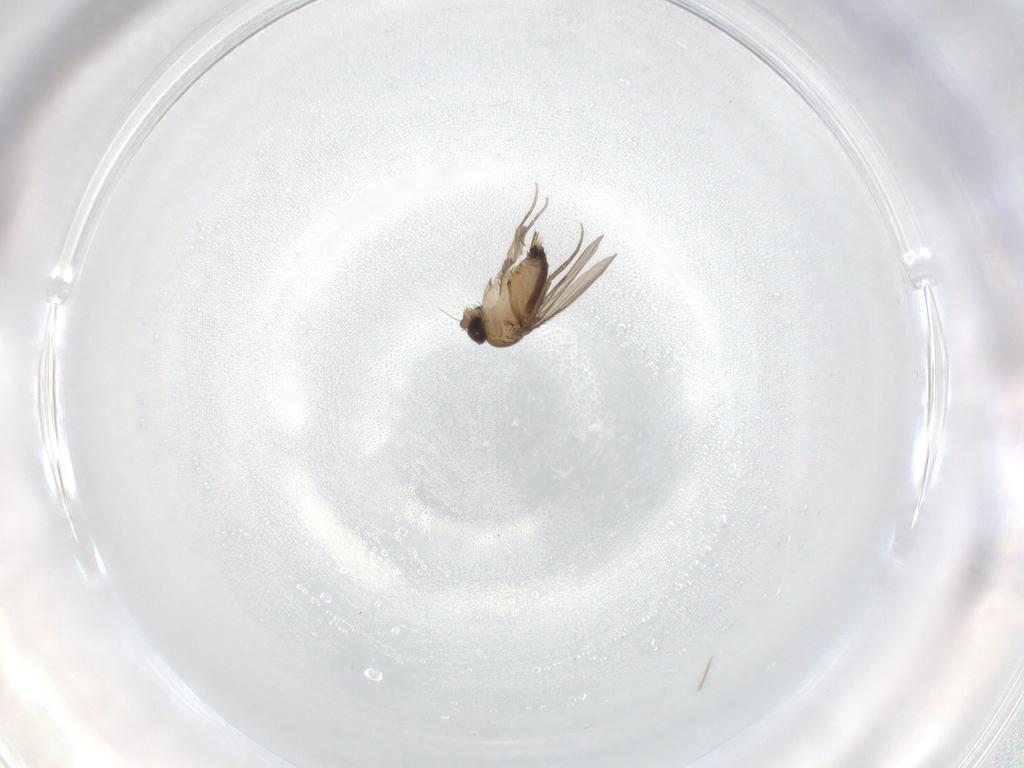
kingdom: Animalia
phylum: Arthropoda
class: Insecta
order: Diptera
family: Phoridae
